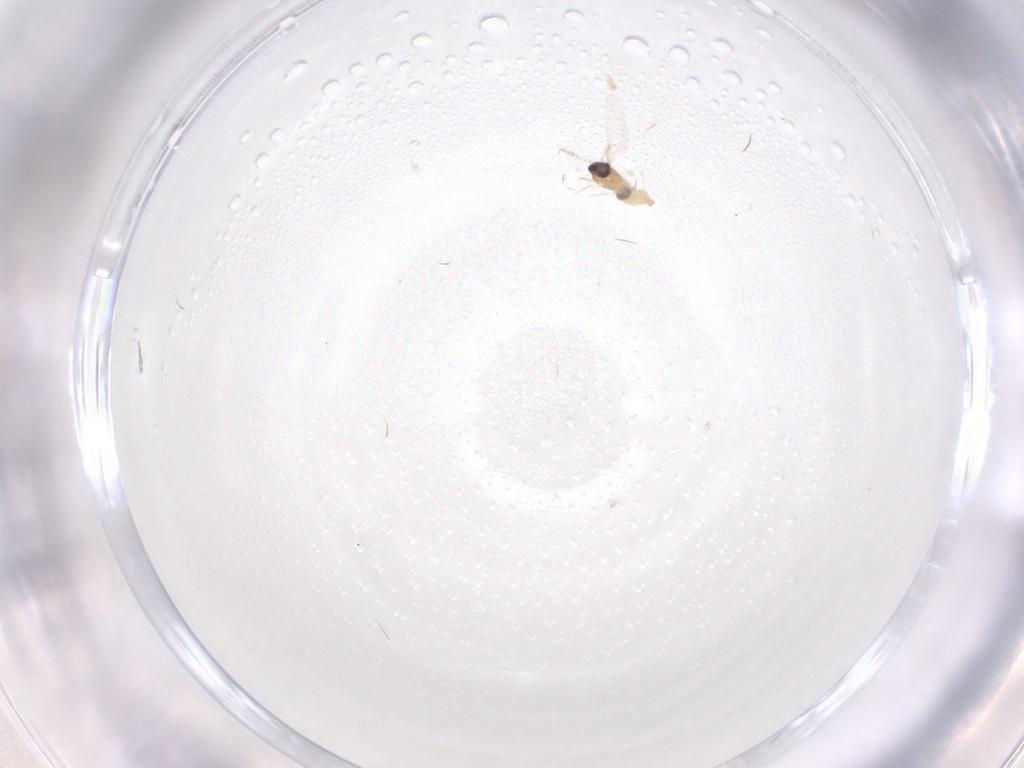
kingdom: Animalia
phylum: Arthropoda
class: Insecta
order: Diptera
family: Cecidomyiidae
